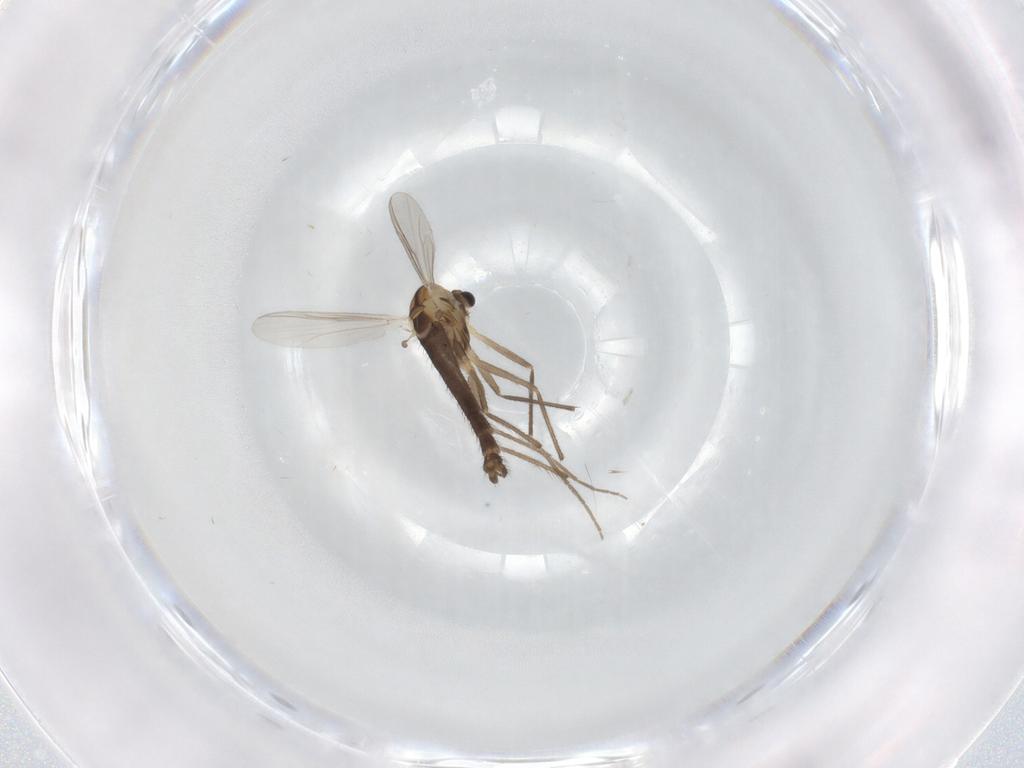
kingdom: Animalia
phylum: Arthropoda
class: Insecta
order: Diptera
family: Chironomidae
